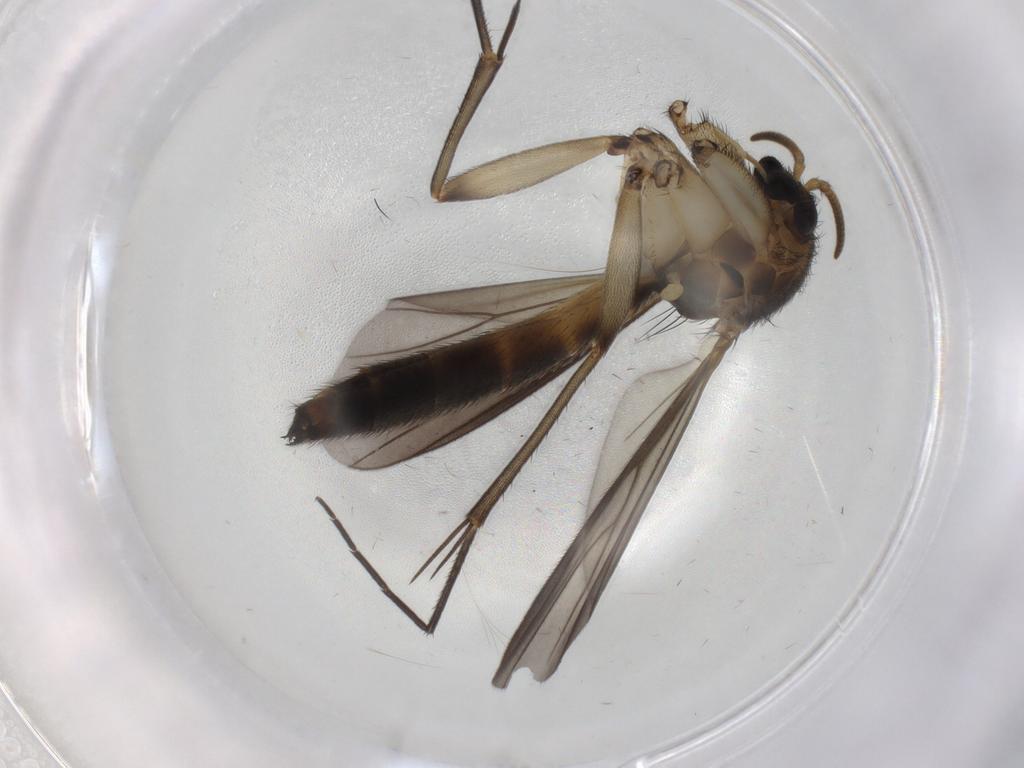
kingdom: Animalia
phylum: Arthropoda
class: Insecta
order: Diptera
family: Mycetophilidae
